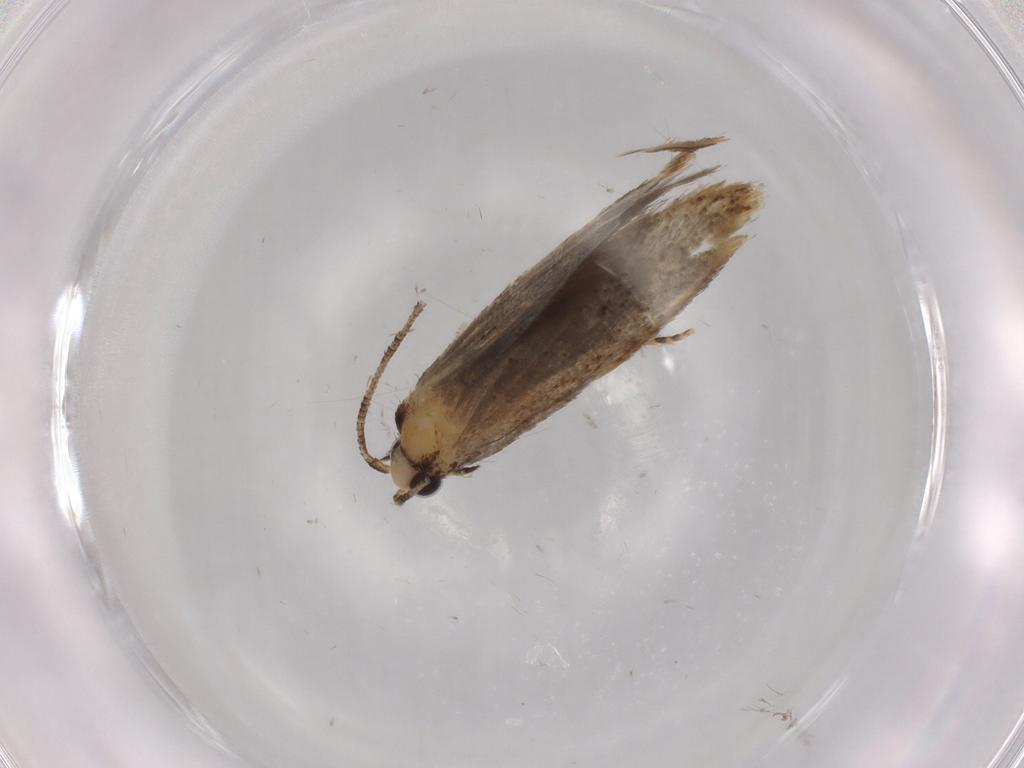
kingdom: Animalia
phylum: Arthropoda
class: Insecta
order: Lepidoptera
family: Tineidae
